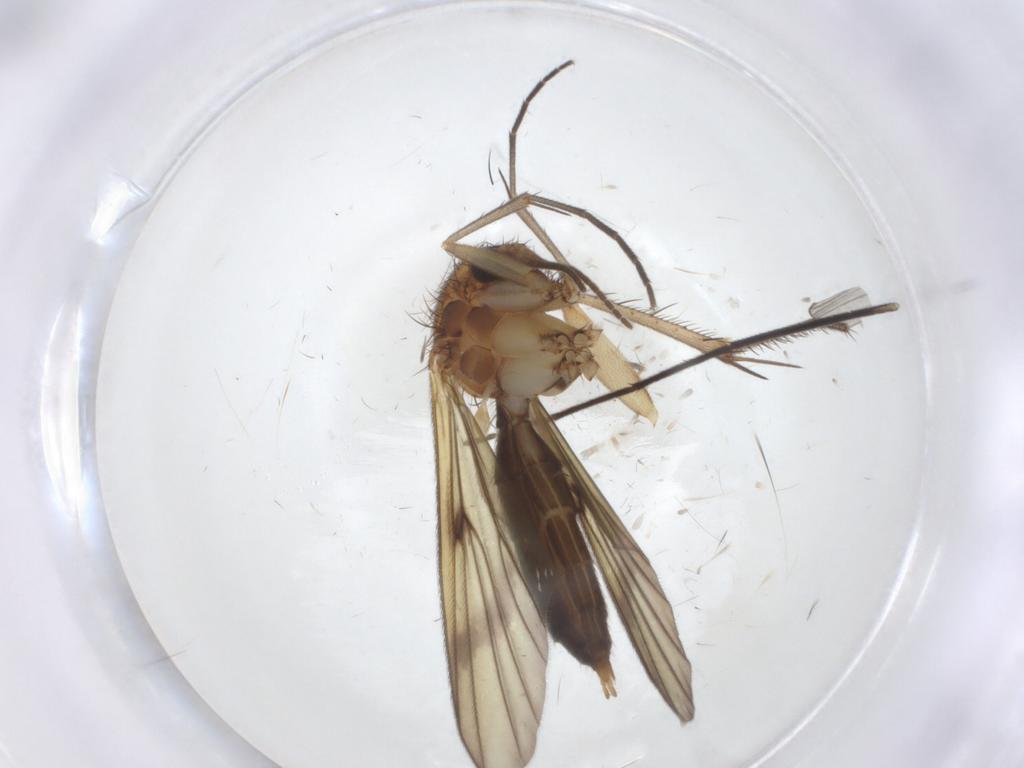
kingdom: Animalia
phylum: Arthropoda
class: Insecta
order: Diptera
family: Mycetophilidae
